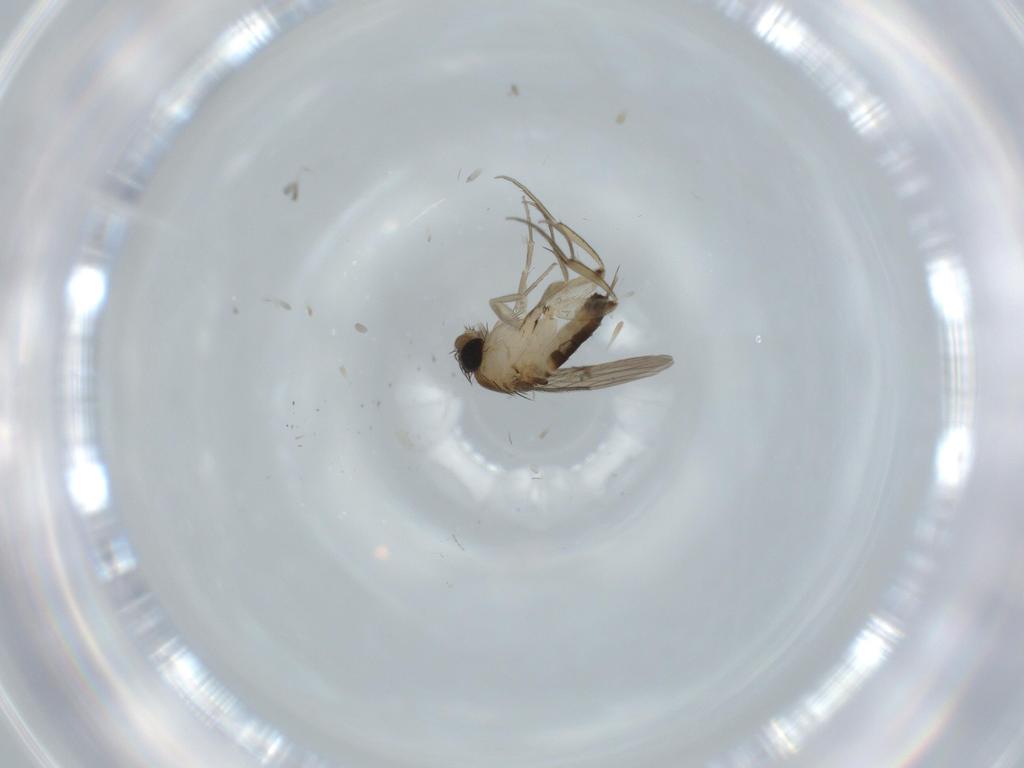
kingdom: Animalia
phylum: Arthropoda
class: Insecta
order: Diptera
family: Phoridae
